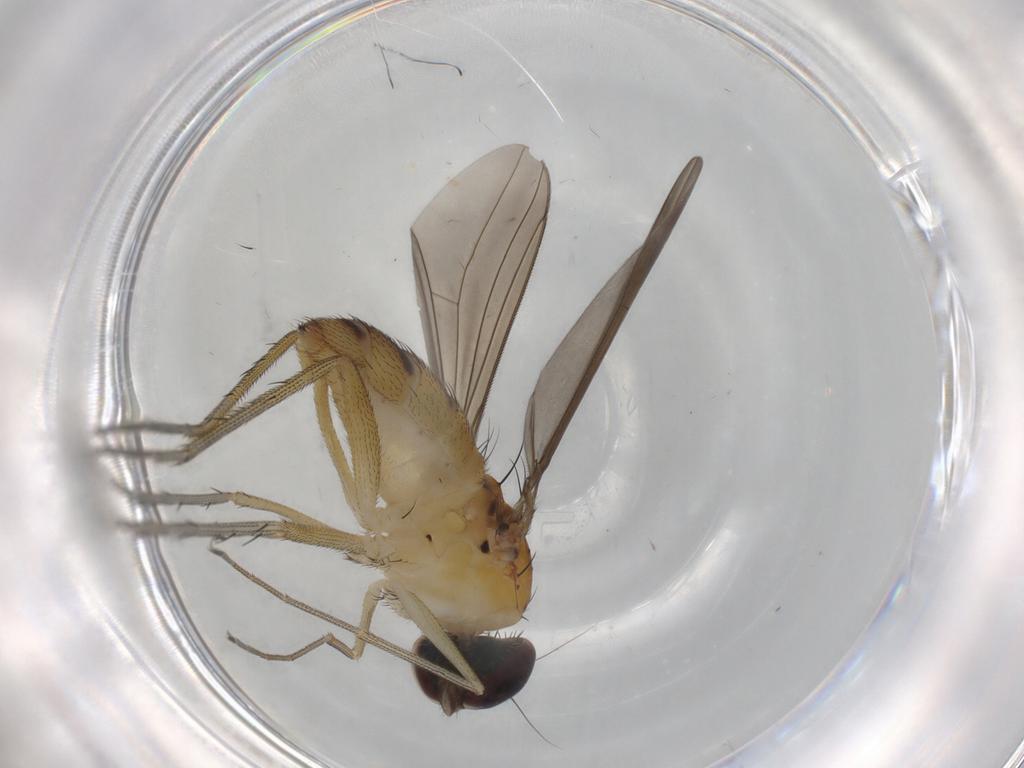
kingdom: Animalia
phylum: Arthropoda
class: Insecta
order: Diptera
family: Dolichopodidae
